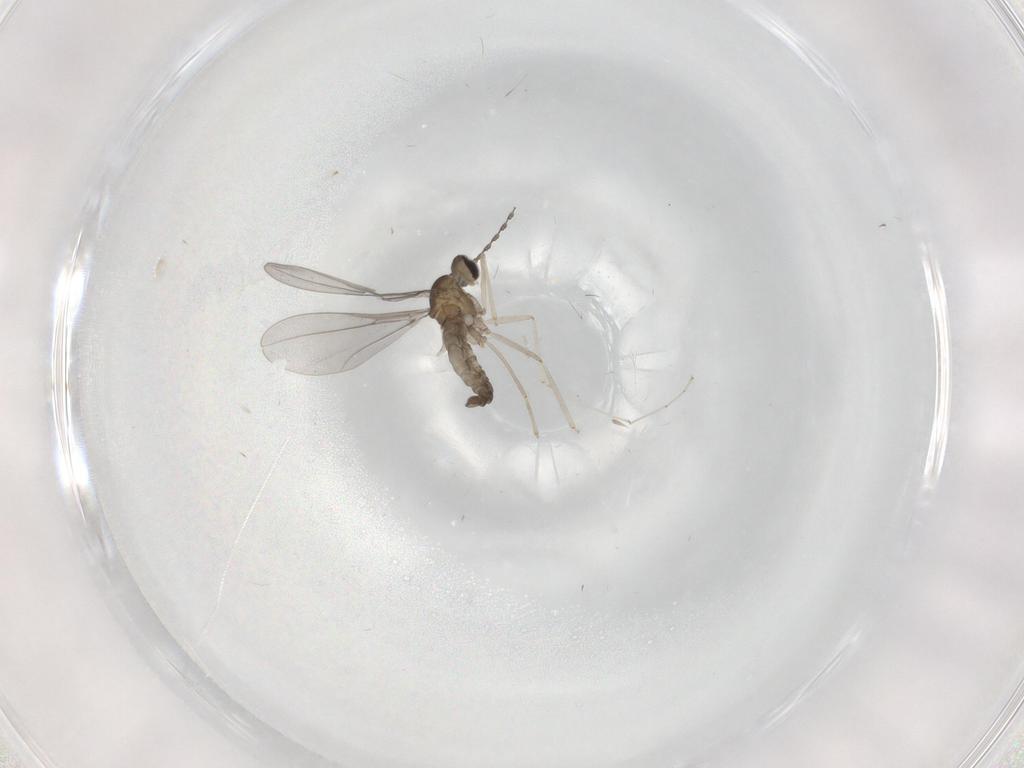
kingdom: Animalia
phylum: Arthropoda
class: Insecta
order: Diptera
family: Cecidomyiidae
